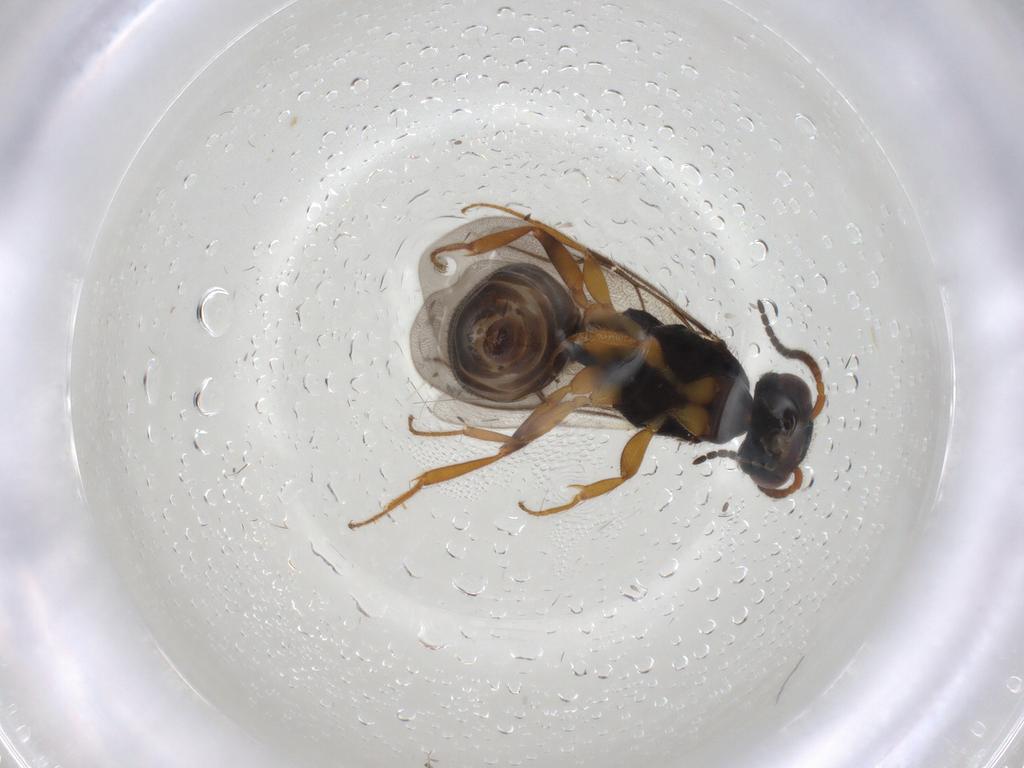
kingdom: Animalia
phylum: Arthropoda
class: Insecta
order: Hymenoptera
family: Bethylidae
